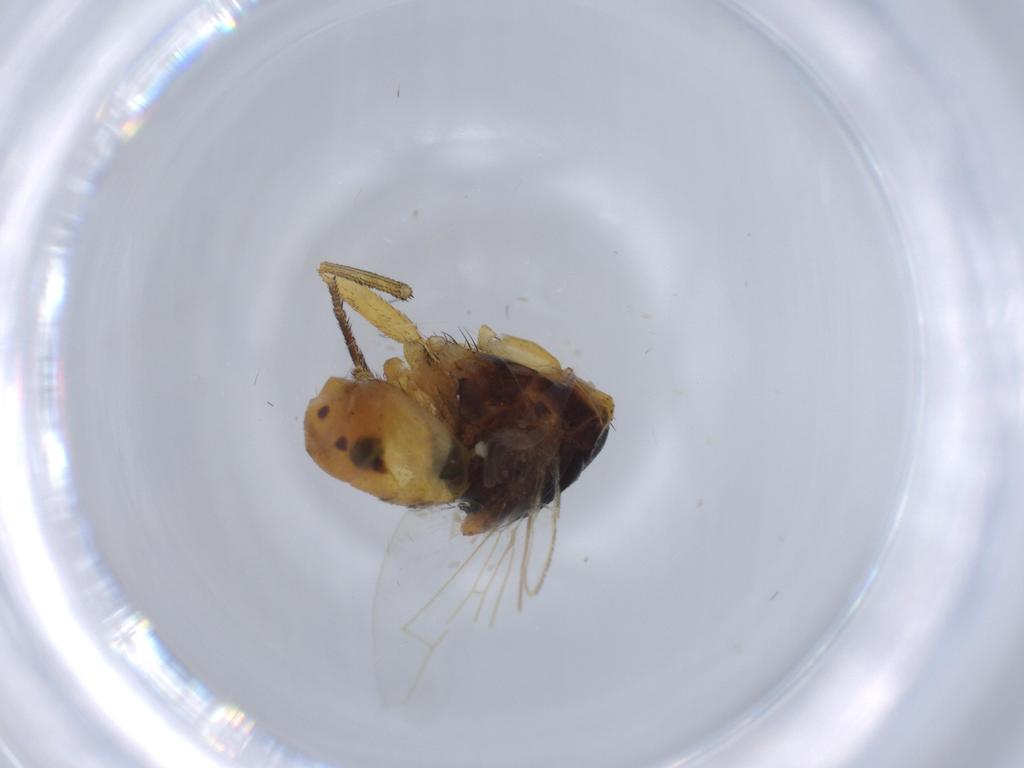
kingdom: Animalia
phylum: Arthropoda
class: Insecta
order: Diptera
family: Muscidae
